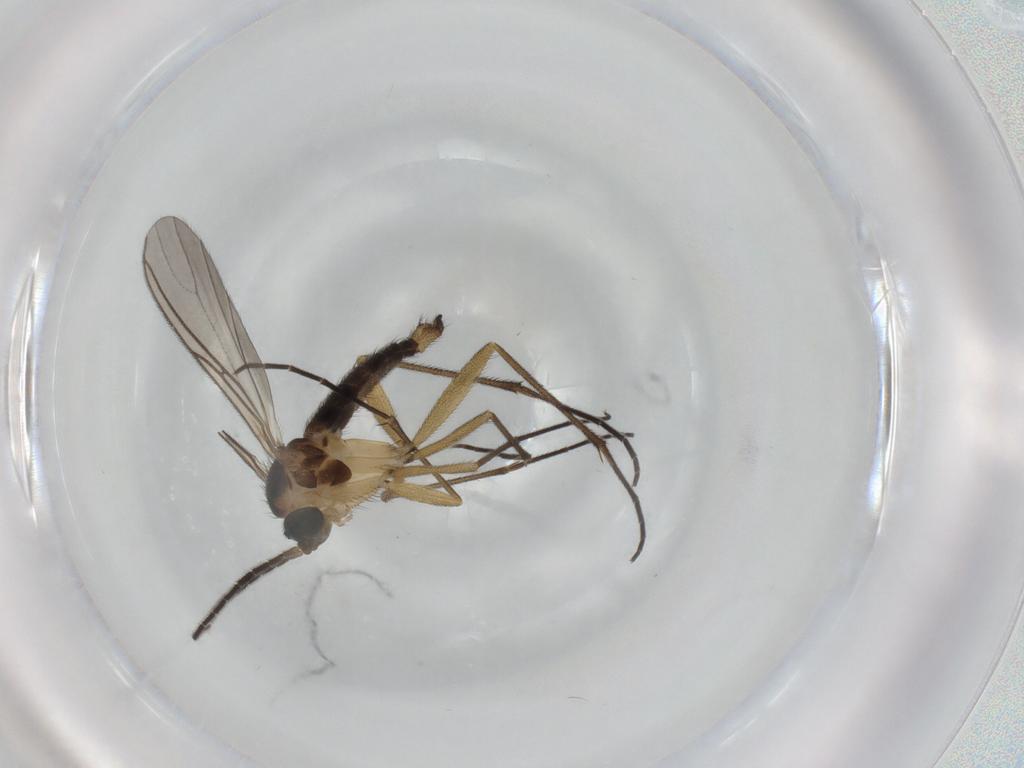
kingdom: Animalia
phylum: Arthropoda
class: Insecta
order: Diptera
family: Sciaridae
